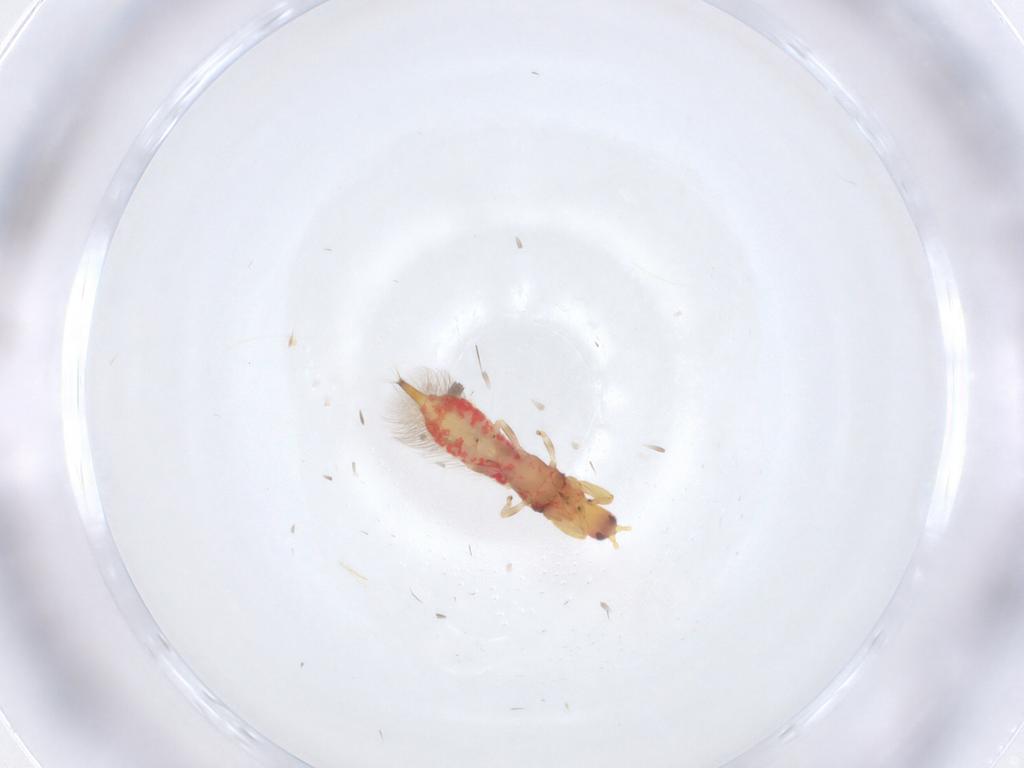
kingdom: Animalia
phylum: Arthropoda
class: Insecta
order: Thysanoptera
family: Phlaeothripidae
